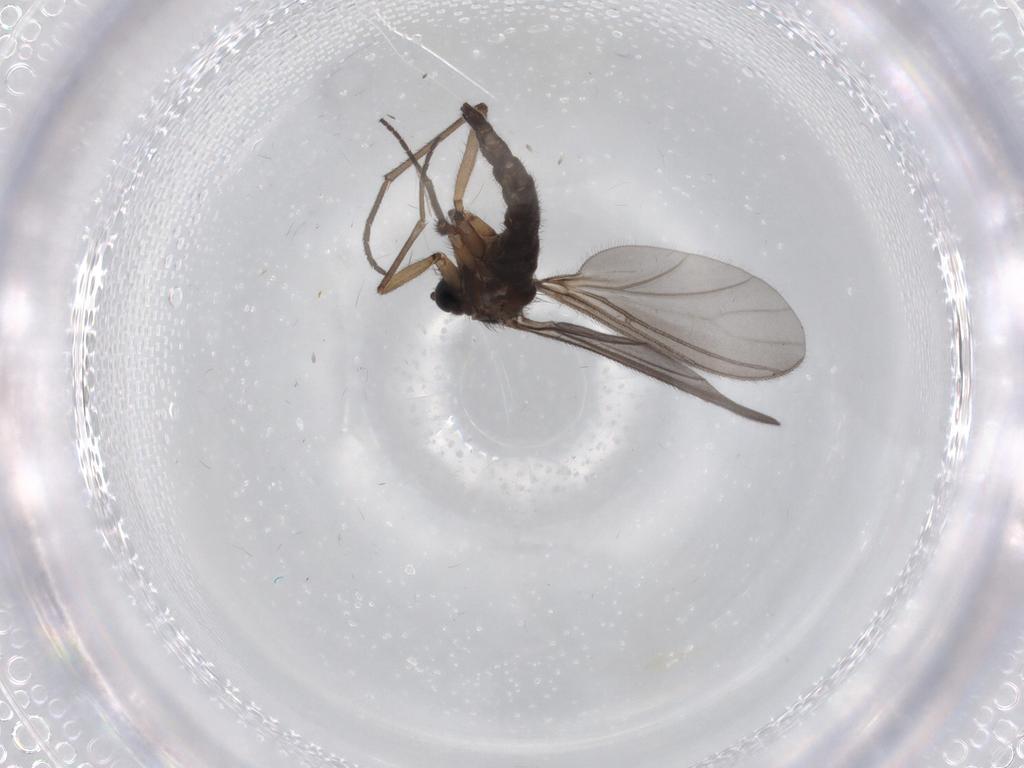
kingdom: Animalia
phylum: Arthropoda
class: Insecta
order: Diptera
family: Sciaridae
